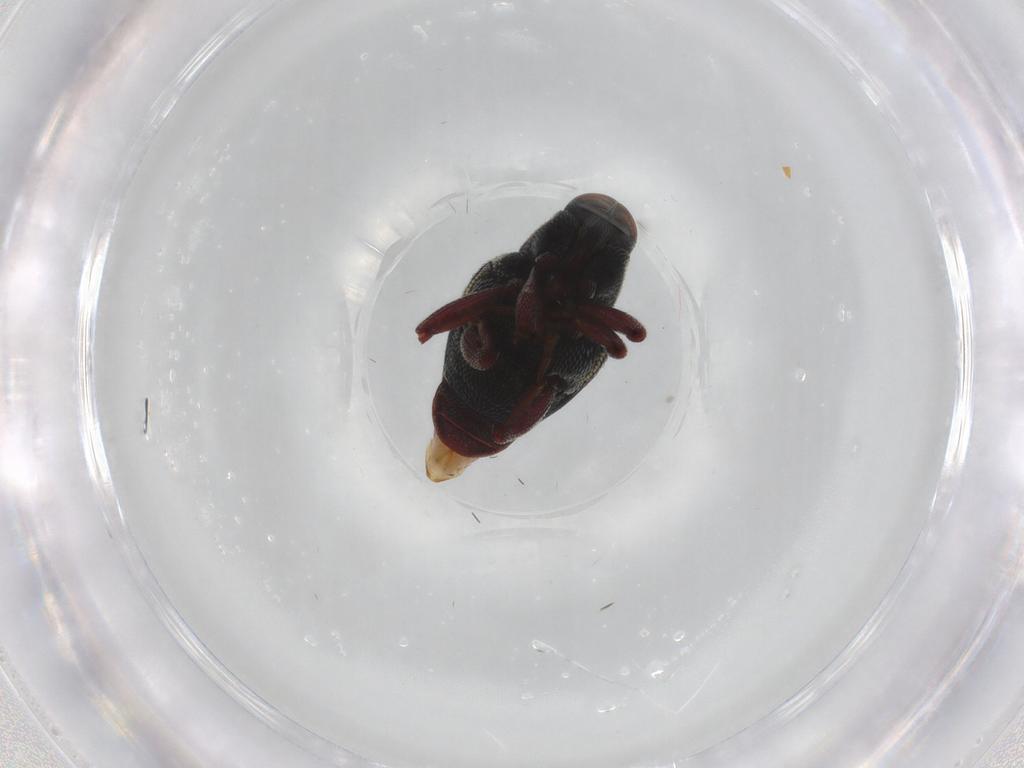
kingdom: Animalia
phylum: Arthropoda
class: Insecta
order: Coleoptera
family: Curculionidae
